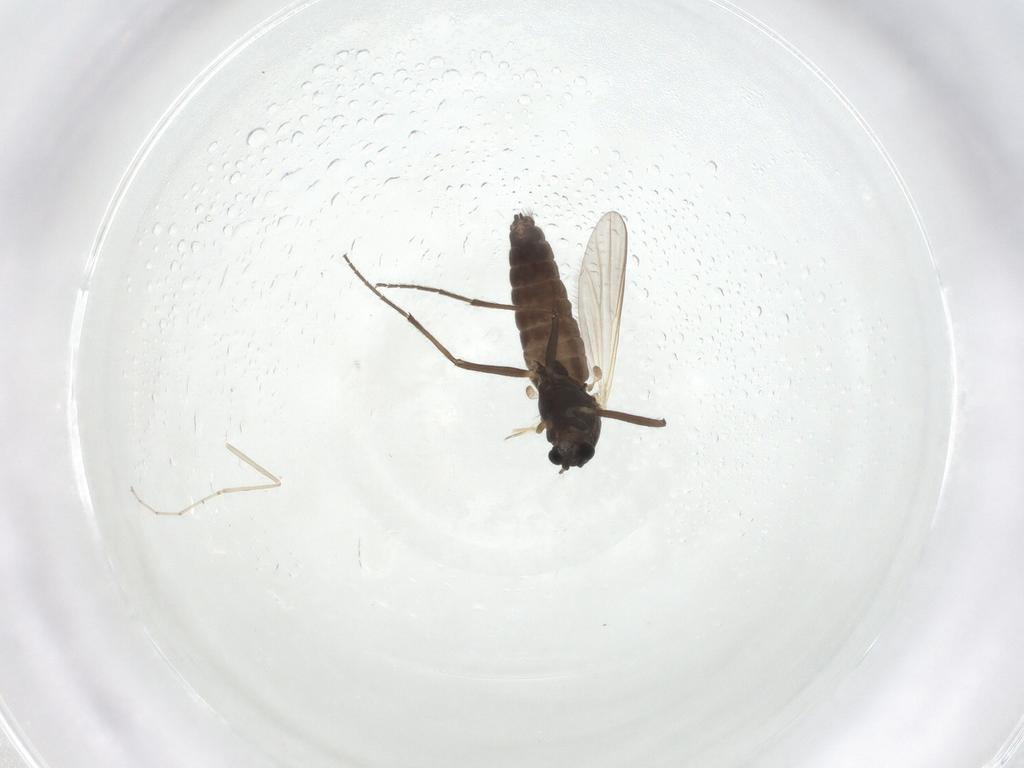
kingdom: Animalia
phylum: Arthropoda
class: Insecta
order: Diptera
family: Chironomidae
